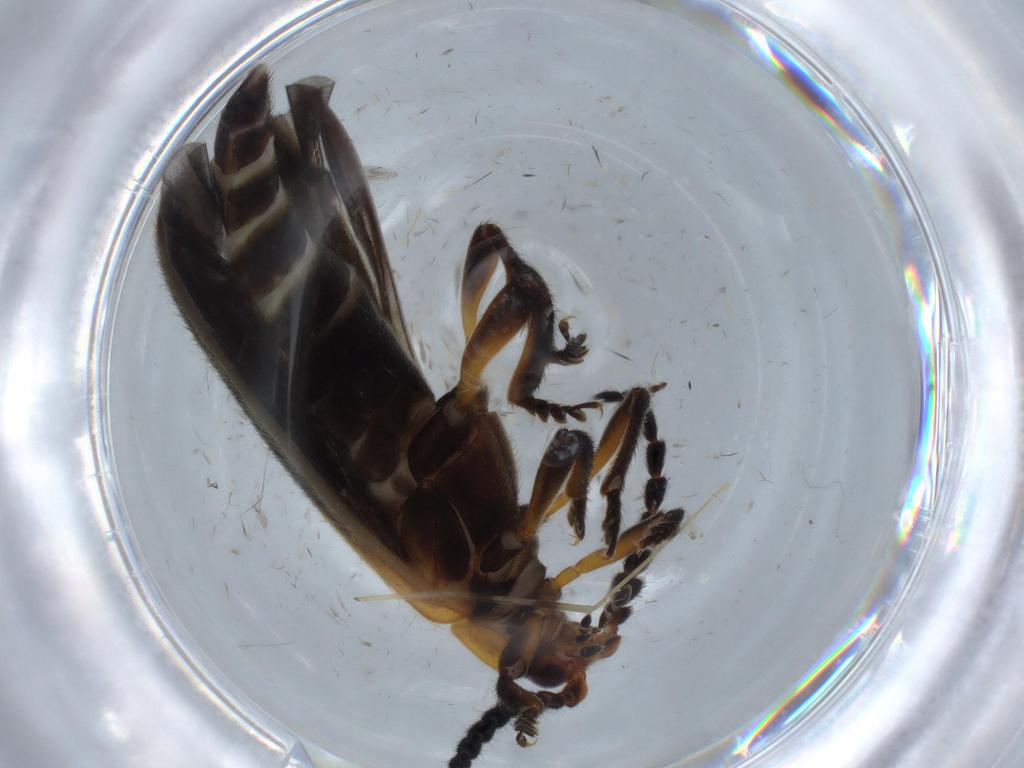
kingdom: Animalia
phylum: Arthropoda
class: Insecta
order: Coleoptera
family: Lycidae
